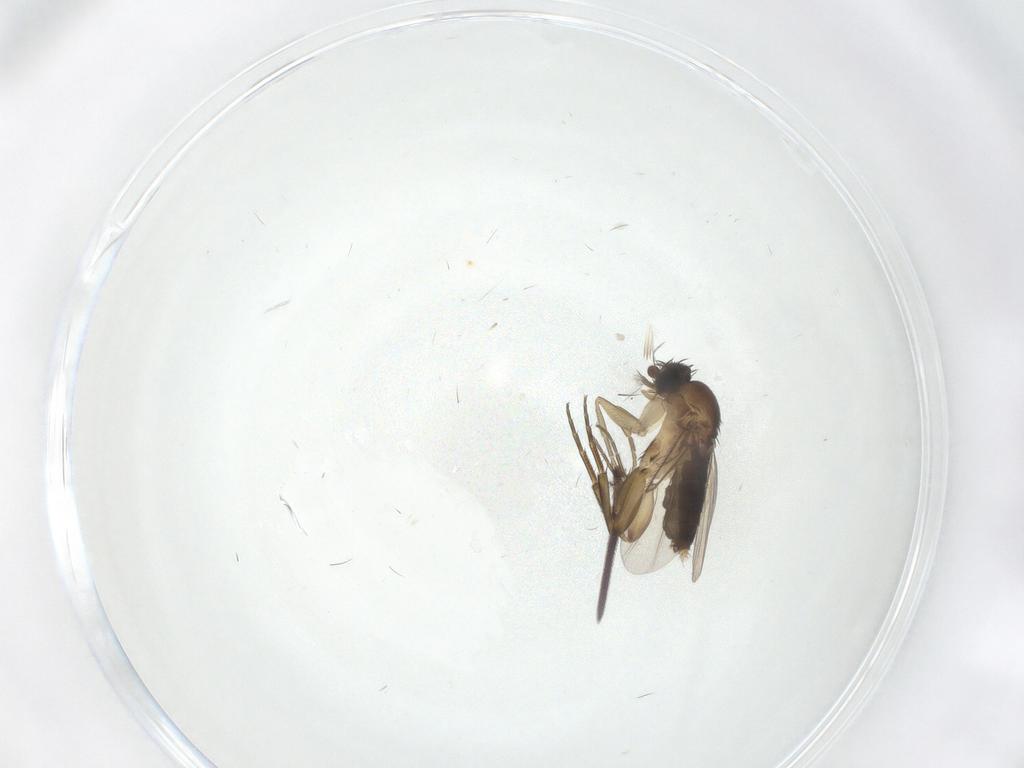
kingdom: Animalia
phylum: Arthropoda
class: Insecta
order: Diptera
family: Phoridae
